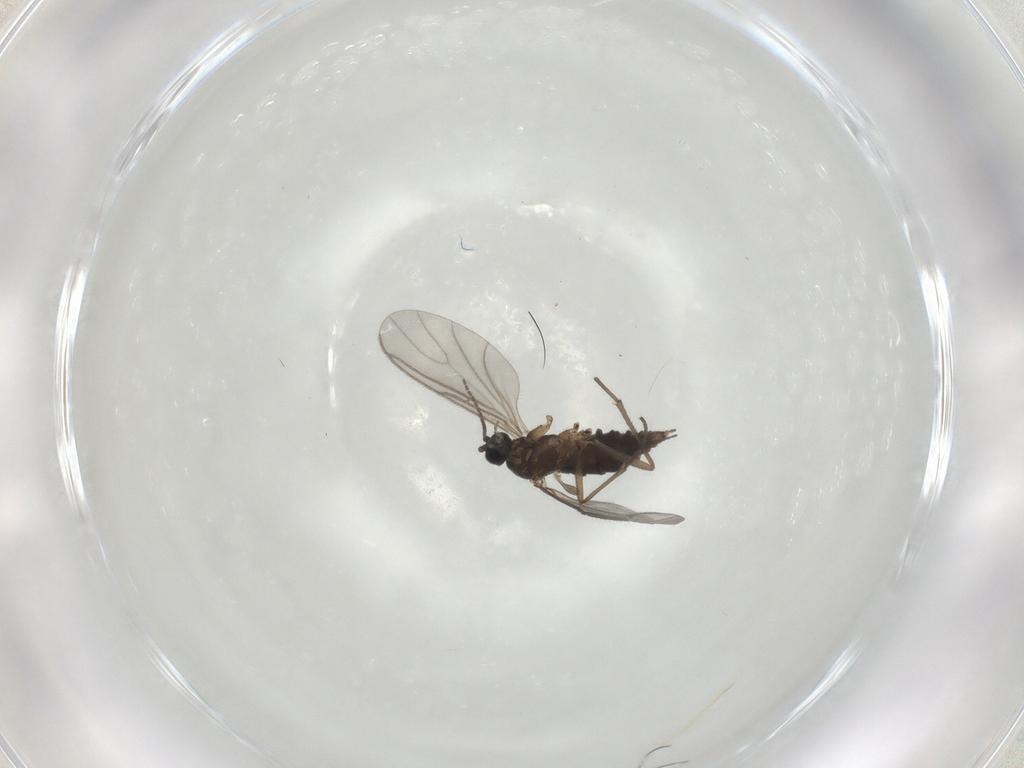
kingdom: Animalia
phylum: Arthropoda
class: Insecta
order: Diptera
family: Sciaridae
